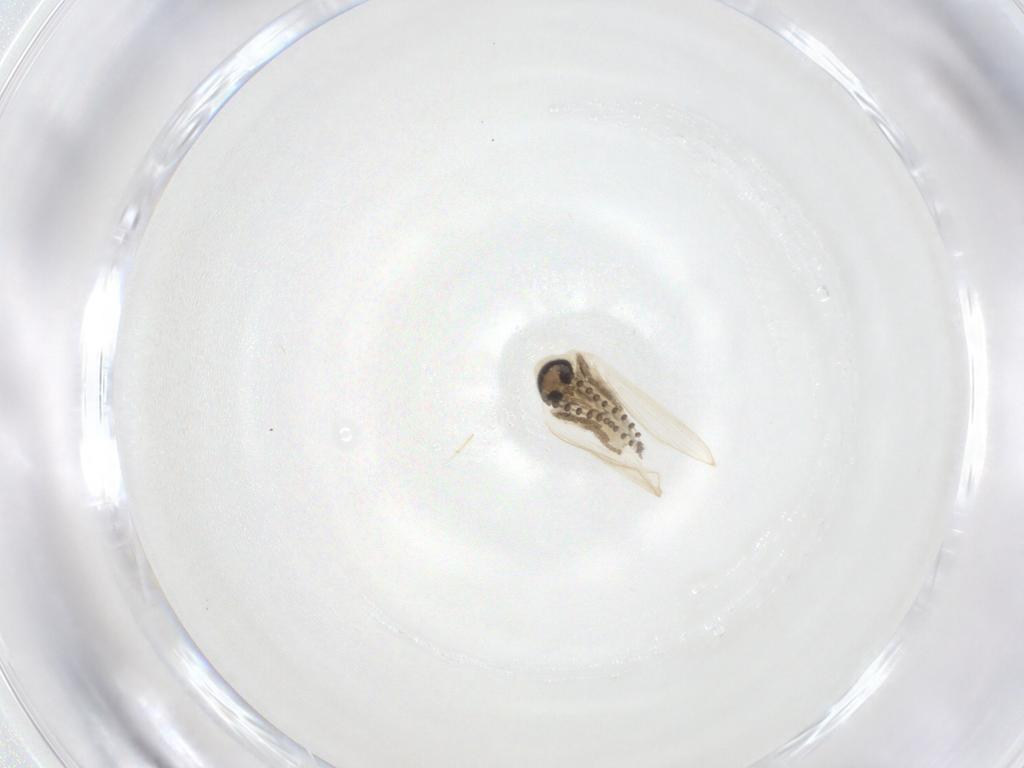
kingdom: Animalia
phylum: Arthropoda
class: Insecta
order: Diptera
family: Psychodidae
